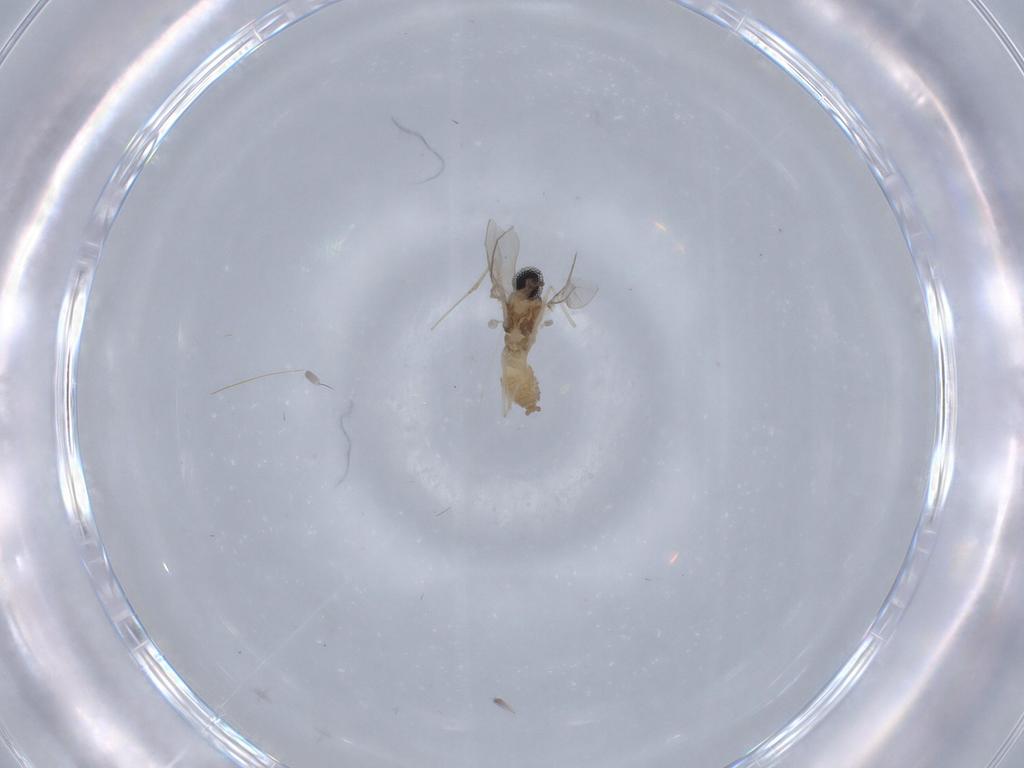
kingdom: Animalia
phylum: Arthropoda
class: Insecta
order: Diptera
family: Cecidomyiidae
